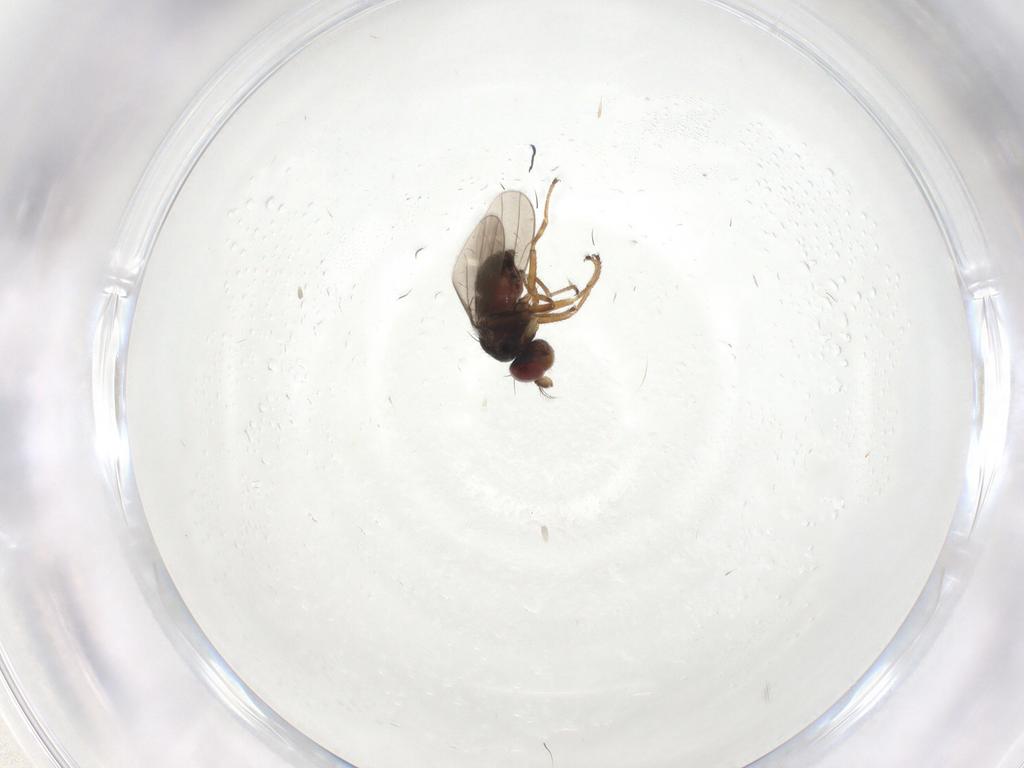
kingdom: Animalia
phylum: Arthropoda
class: Insecta
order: Diptera
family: Ephydridae
